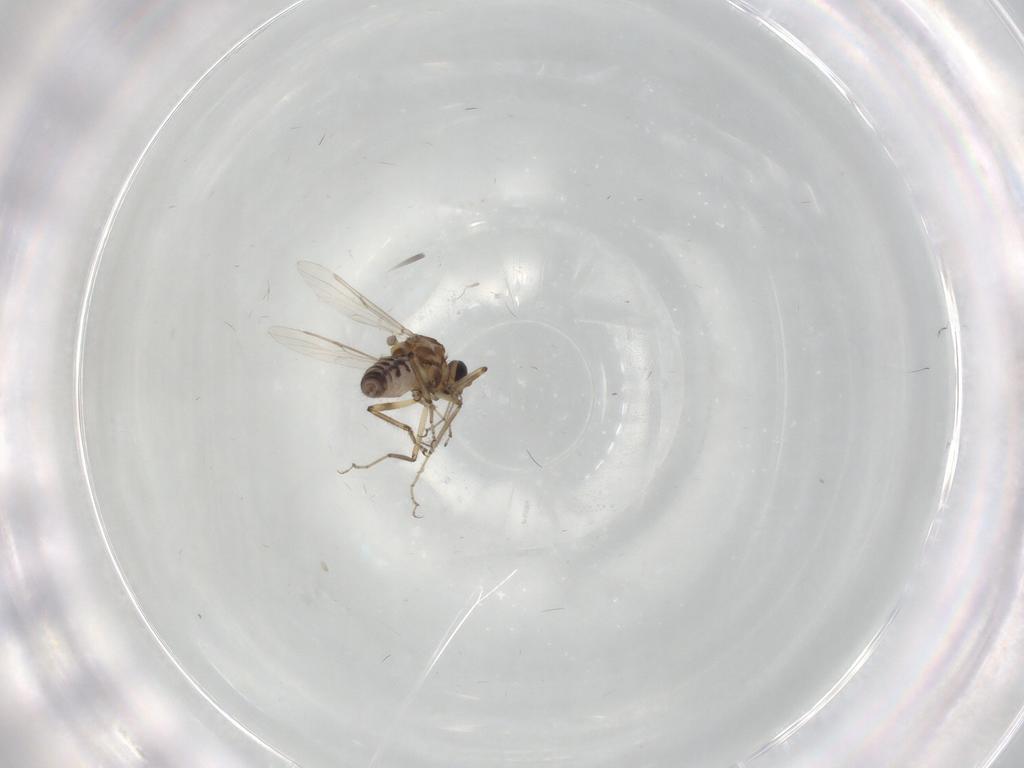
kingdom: Animalia
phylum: Arthropoda
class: Insecta
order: Diptera
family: Ceratopogonidae
